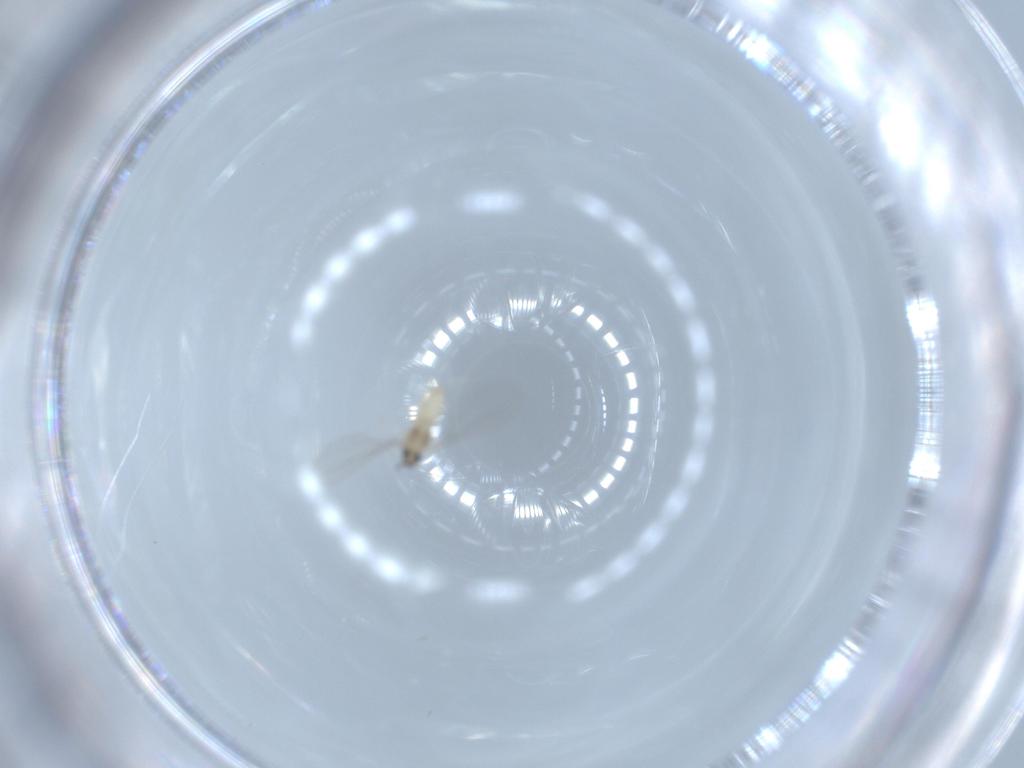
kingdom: Animalia
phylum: Arthropoda
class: Insecta
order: Diptera
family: Cecidomyiidae
